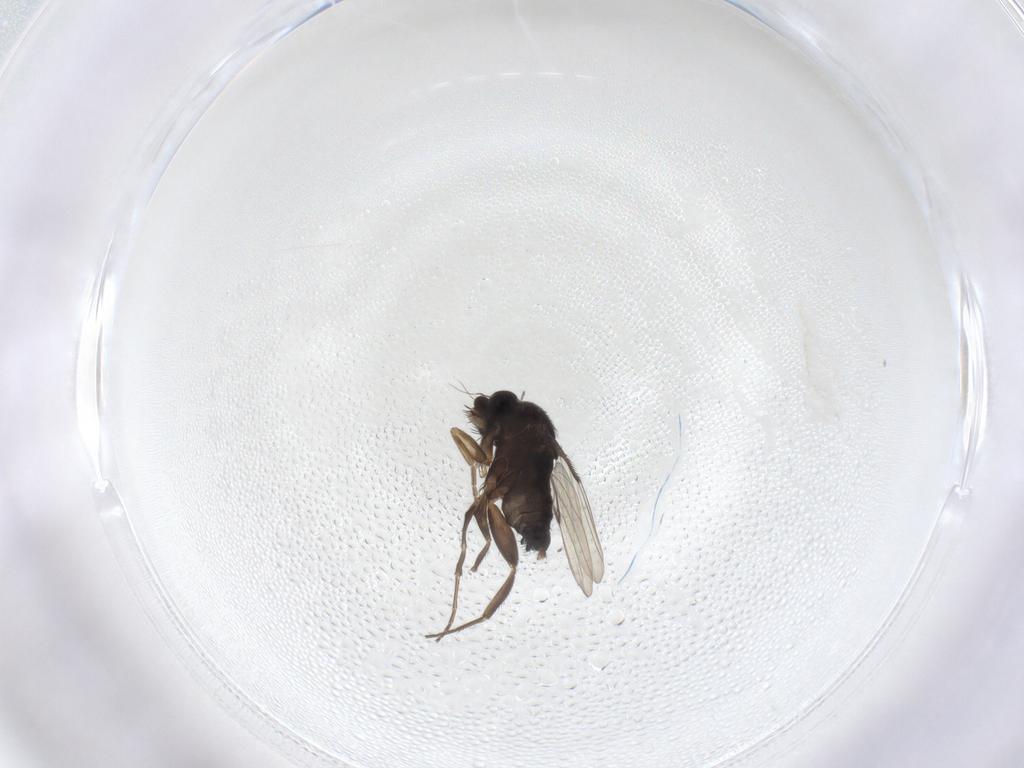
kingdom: Animalia
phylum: Arthropoda
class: Insecta
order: Diptera
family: Phoridae
